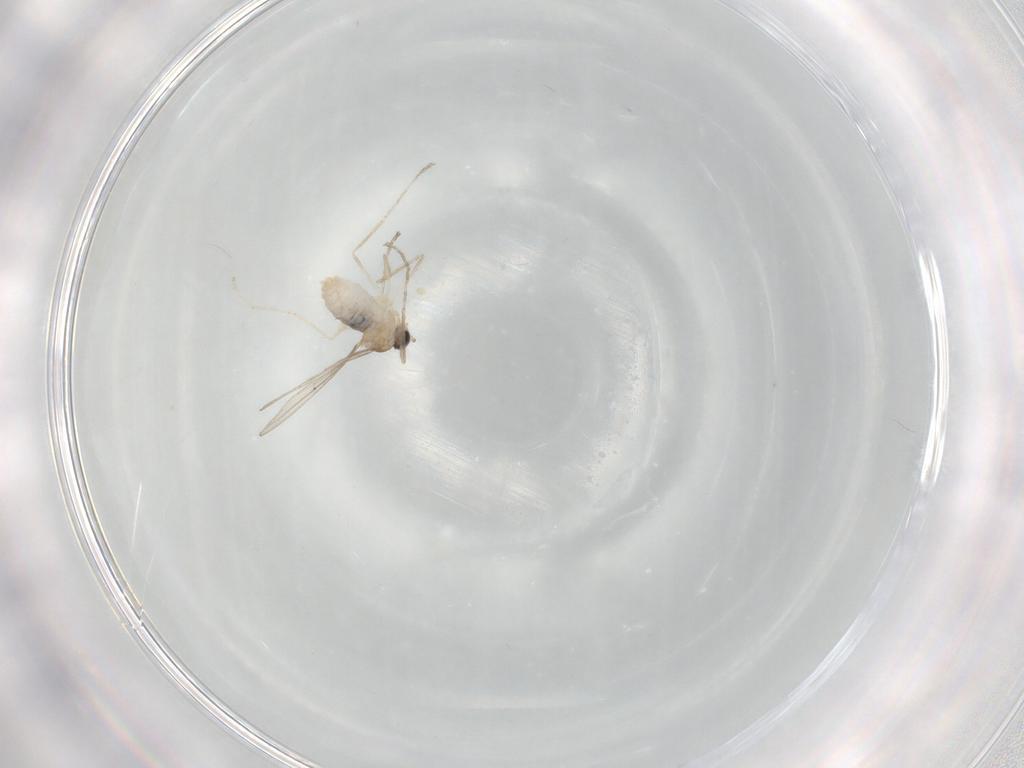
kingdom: Animalia
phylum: Arthropoda
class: Insecta
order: Diptera
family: Cecidomyiidae
